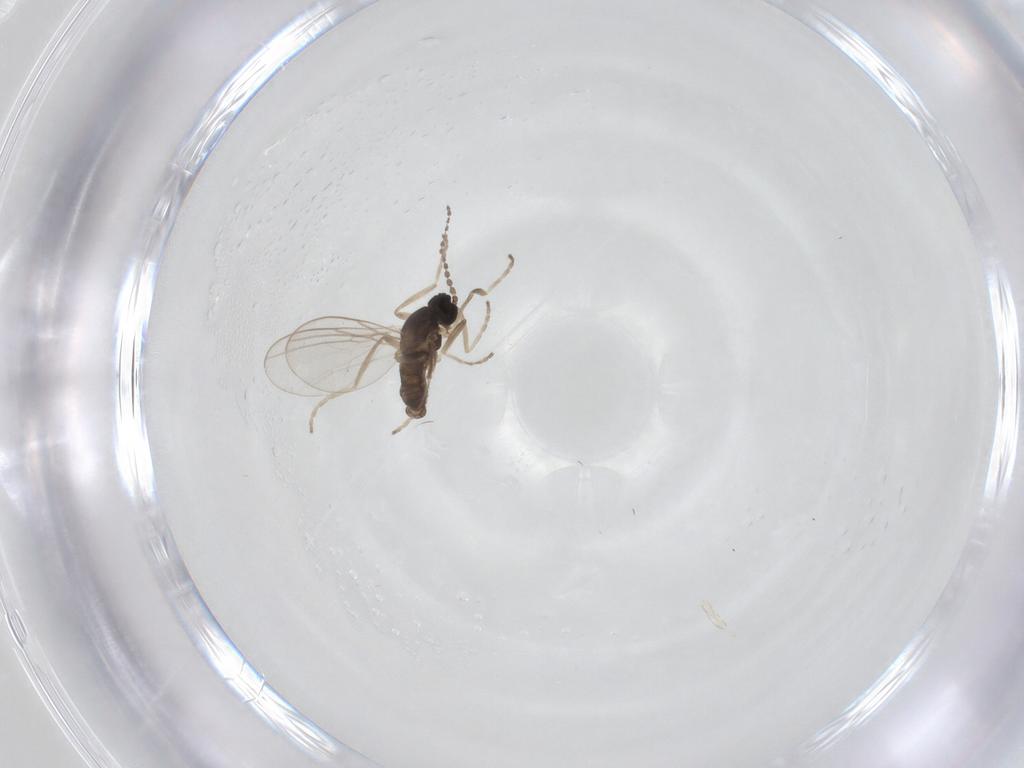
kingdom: Animalia
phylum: Arthropoda
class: Insecta
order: Diptera
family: Cecidomyiidae
